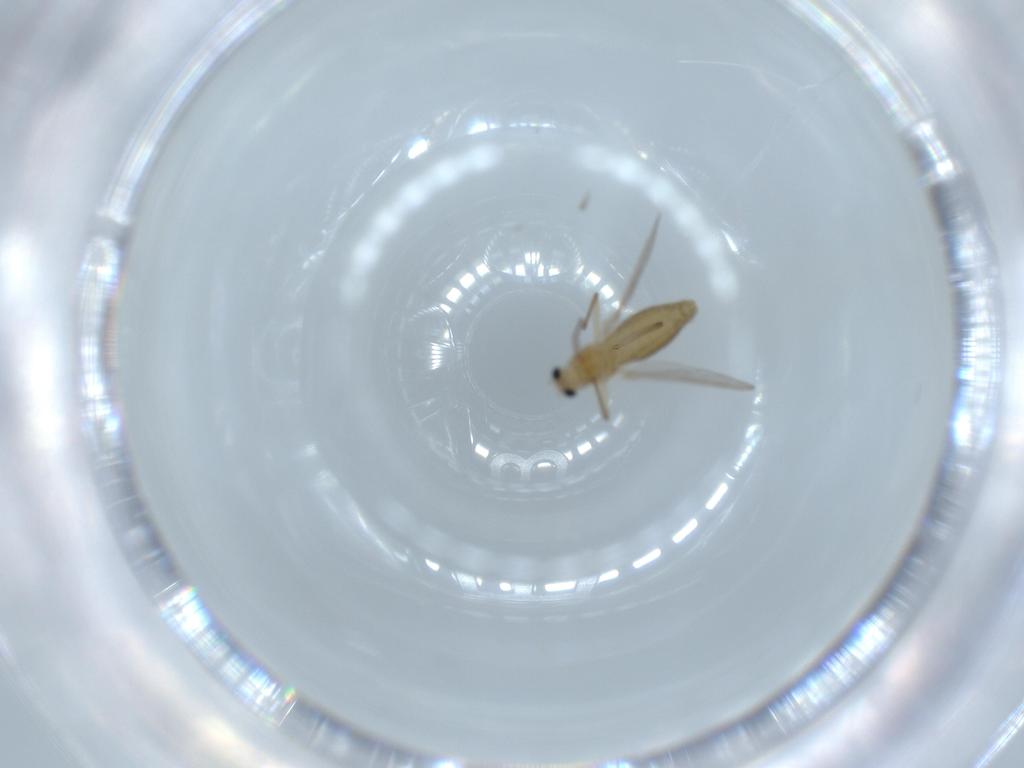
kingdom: Animalia
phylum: Arthropoda
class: Insecta
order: Diptera
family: Chironomidae
